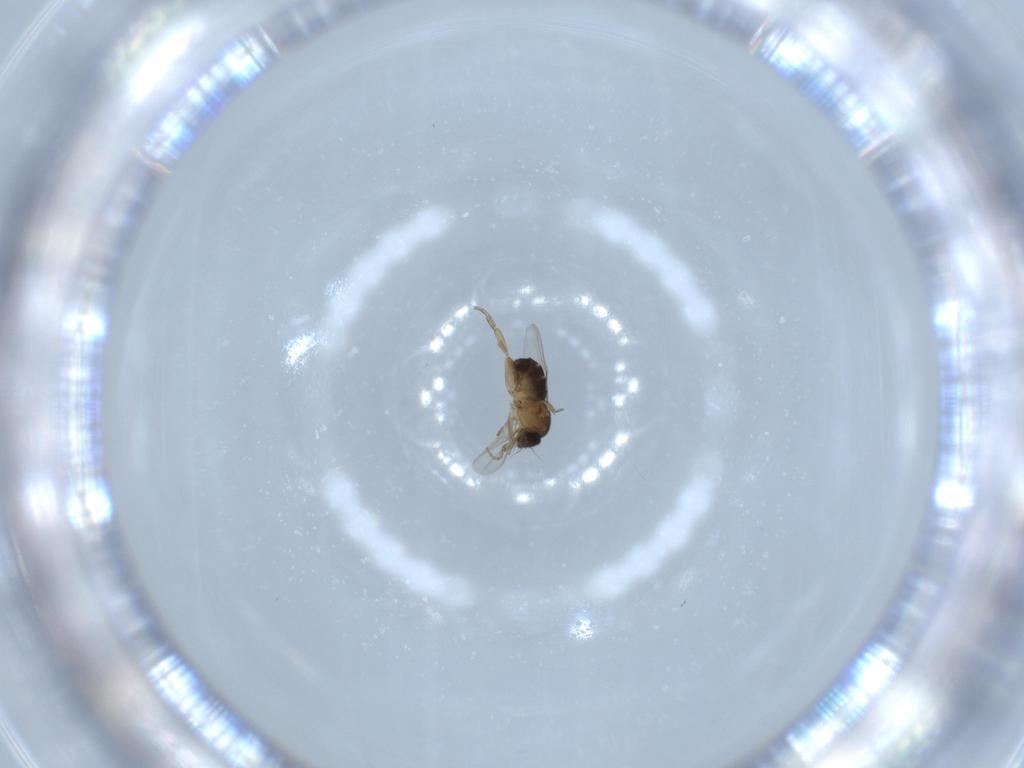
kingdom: Animalia
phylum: Arthropoda
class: Insecta
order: Diptera
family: Phoridae
